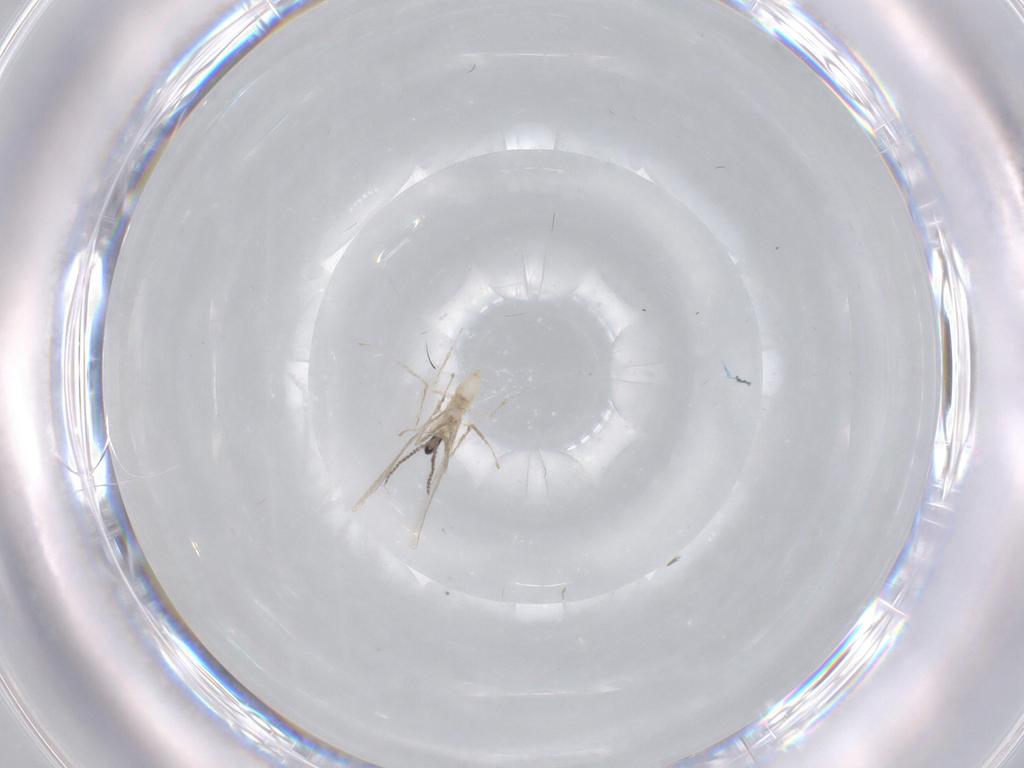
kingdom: Animalia
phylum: Arthropoda
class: Insecta
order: Diptera
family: Cecidomyiidae
